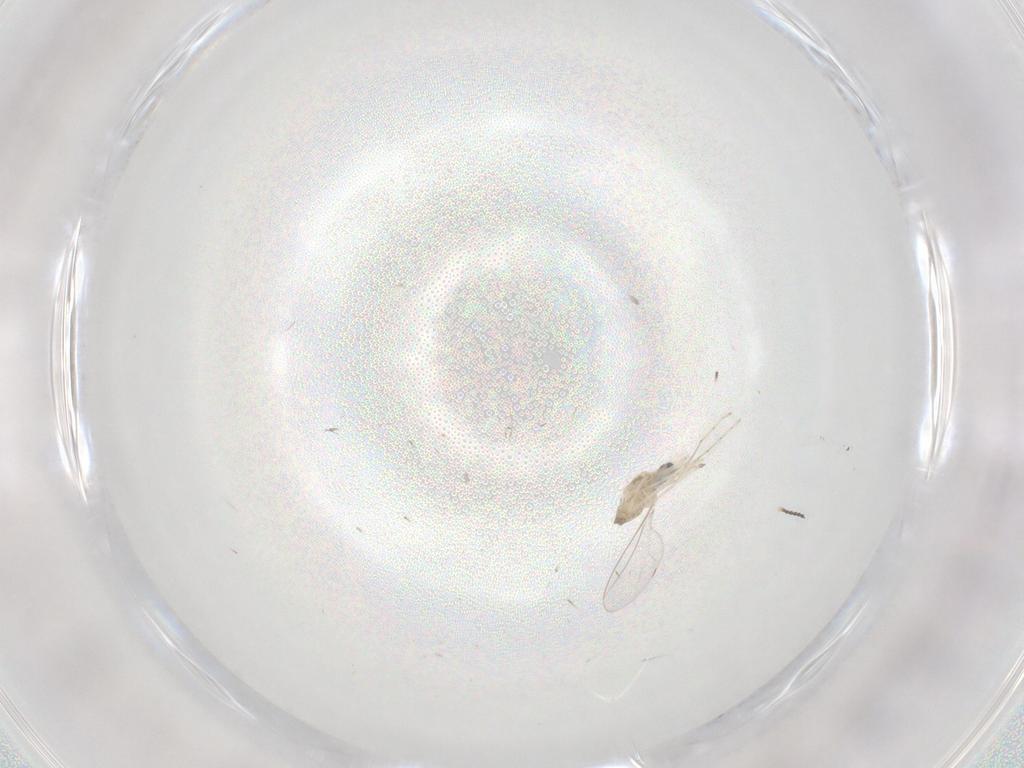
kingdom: Animalia
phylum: Arthropoda
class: Insecta
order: Diptera
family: Cecidomyiidae
